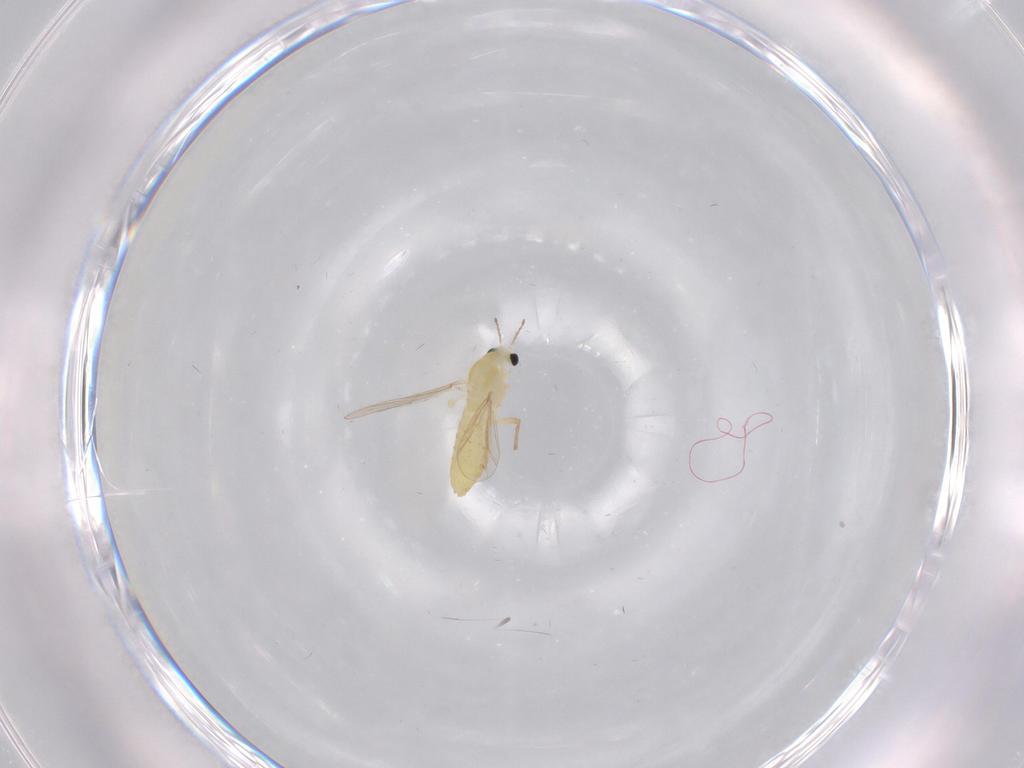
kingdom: Animalia
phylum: Arthropoda
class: Insecta
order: Diptera
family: Chironomidae
